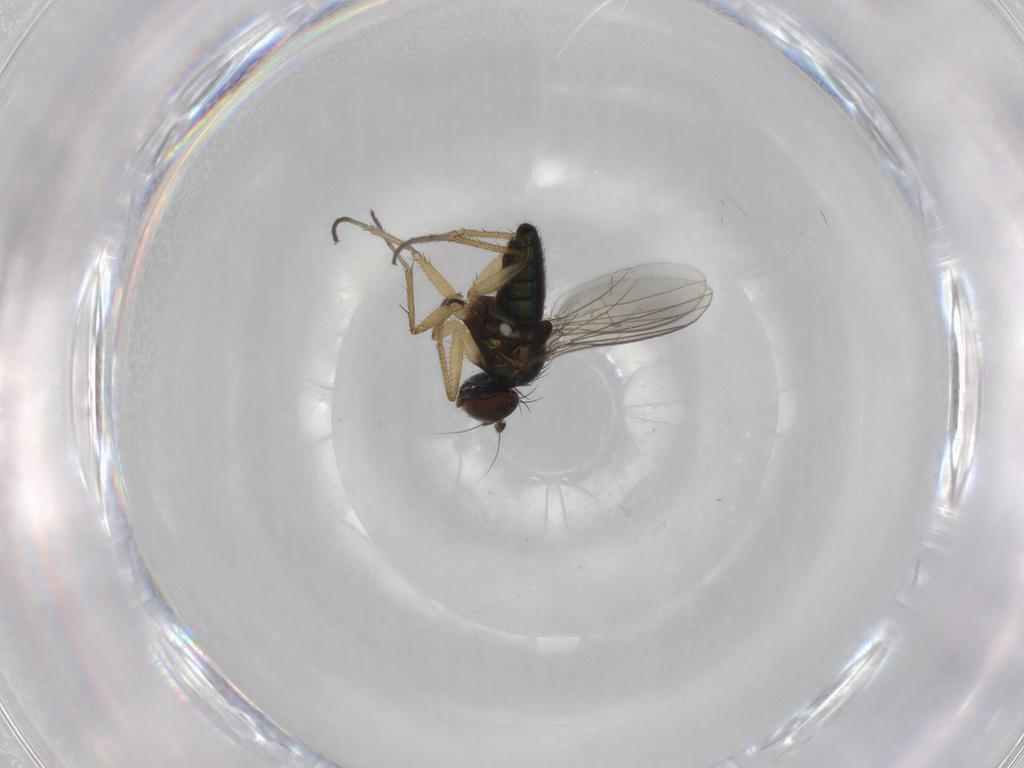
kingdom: Animalia
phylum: Arthropoda
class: Insecta
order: Diptera
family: Dolichopodidae
